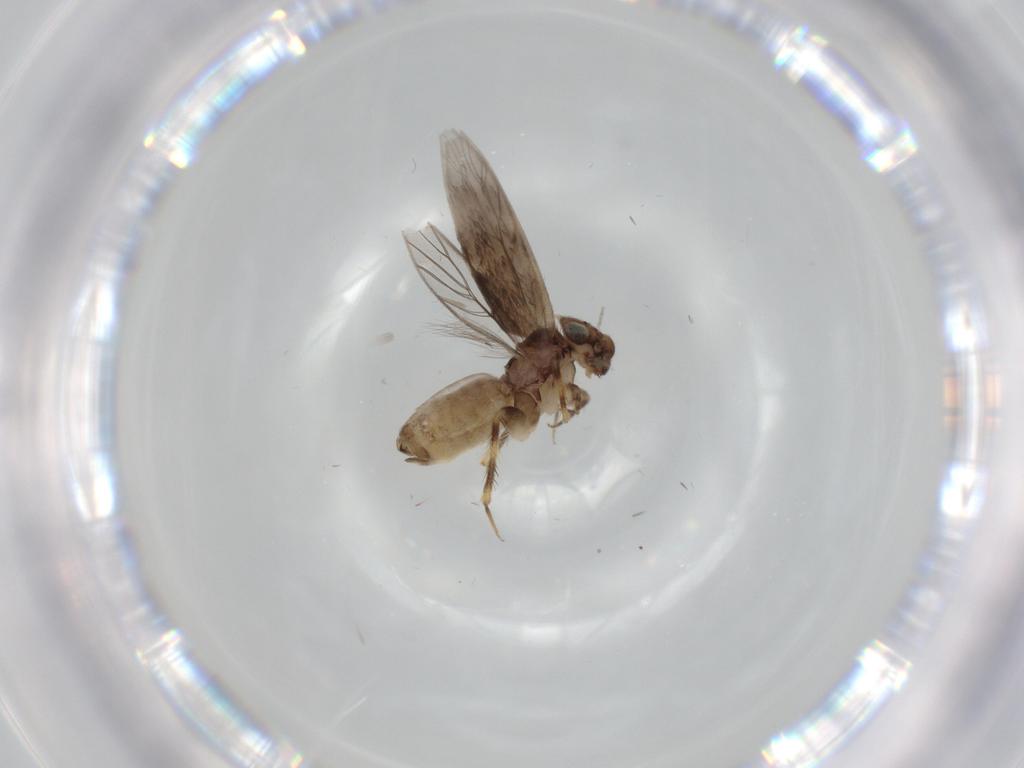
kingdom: Animalia
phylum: Arthropoda
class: Insecta
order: Psocodea
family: Lepidopsocidae
